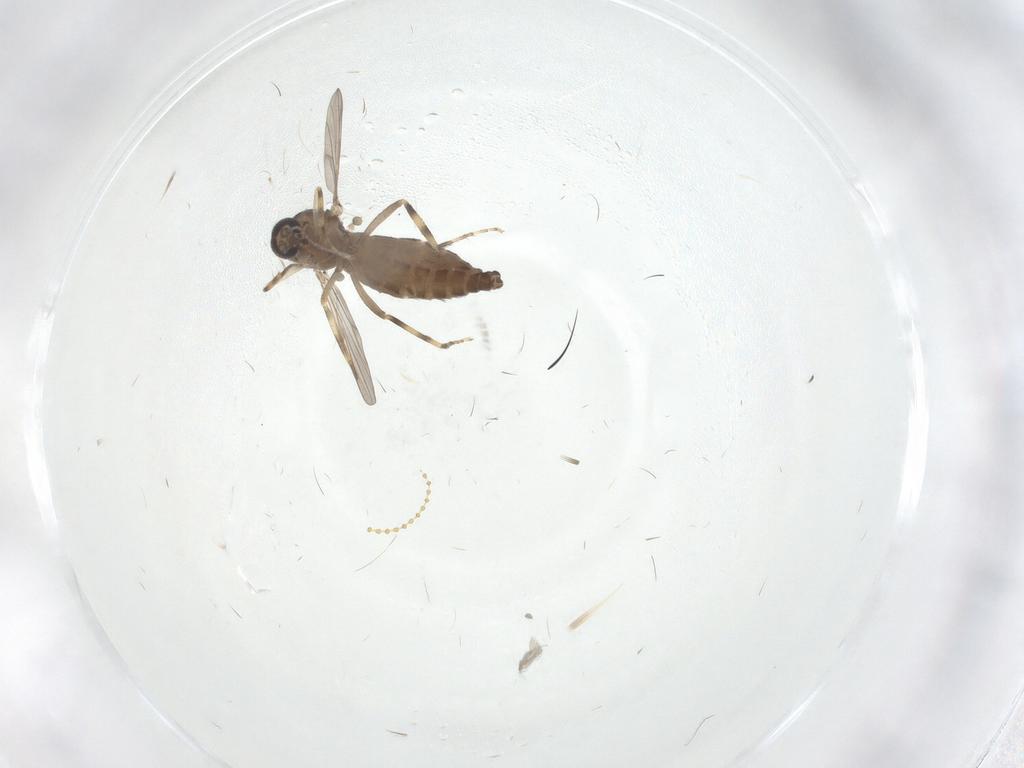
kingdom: Animalia
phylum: Arthropoda
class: Insecta
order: Diptera
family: Ceratopogonidae
